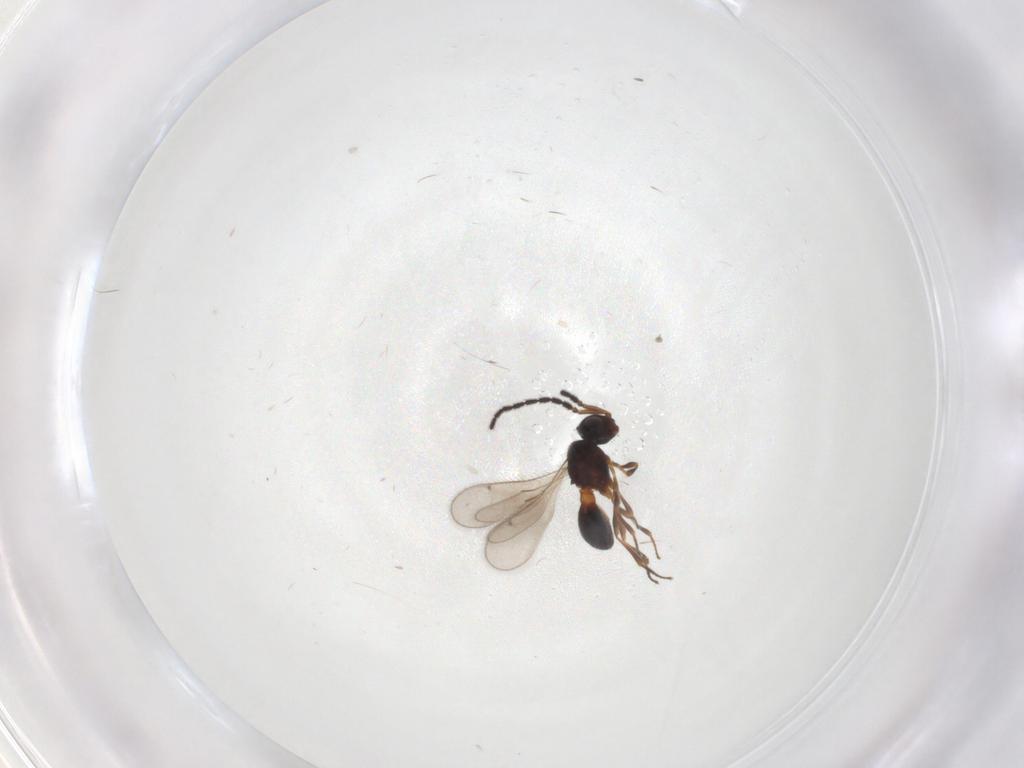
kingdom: Animalia
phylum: Arthropoda
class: Insecta
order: Hymenoptera
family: Scelionidae
